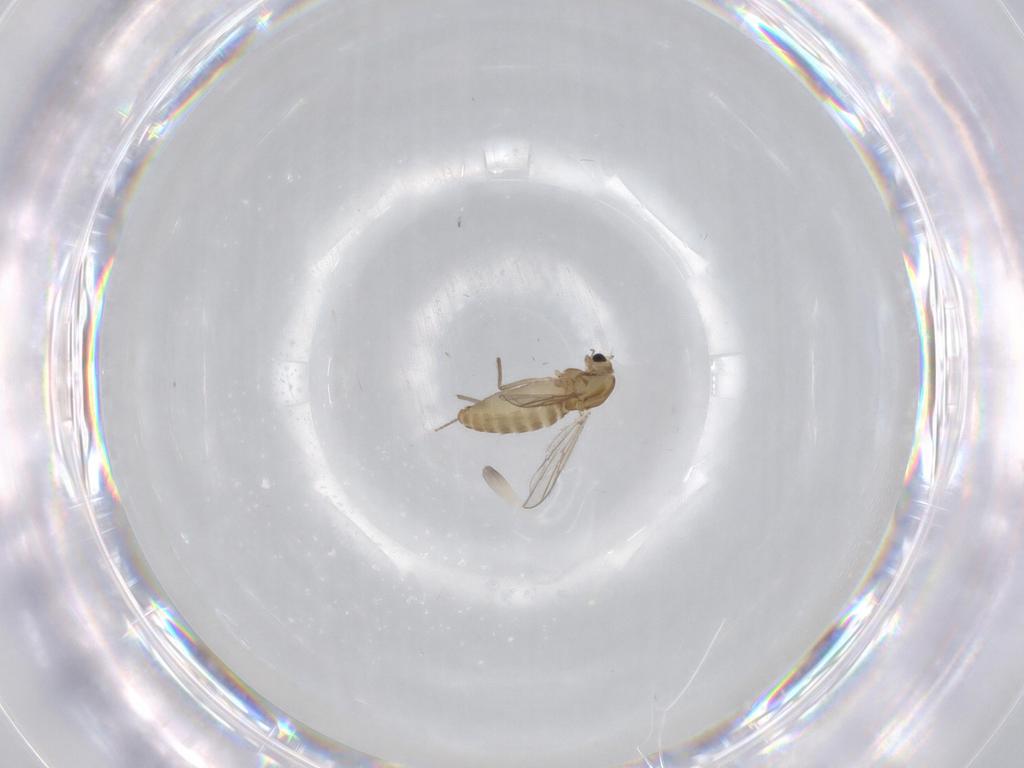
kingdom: Animalia
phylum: Arthropoda
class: Insecta
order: Diptera
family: Chironomidae
